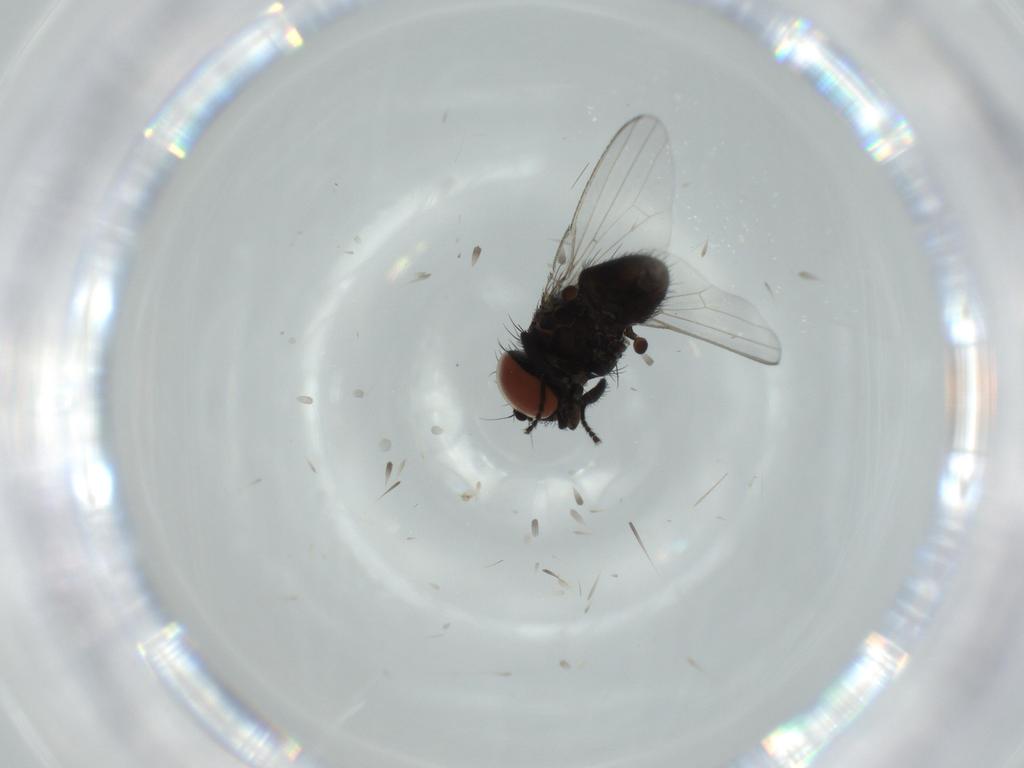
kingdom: Animalia
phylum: Arthropoda
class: Insecta
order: Diptera
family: Milichiidae
